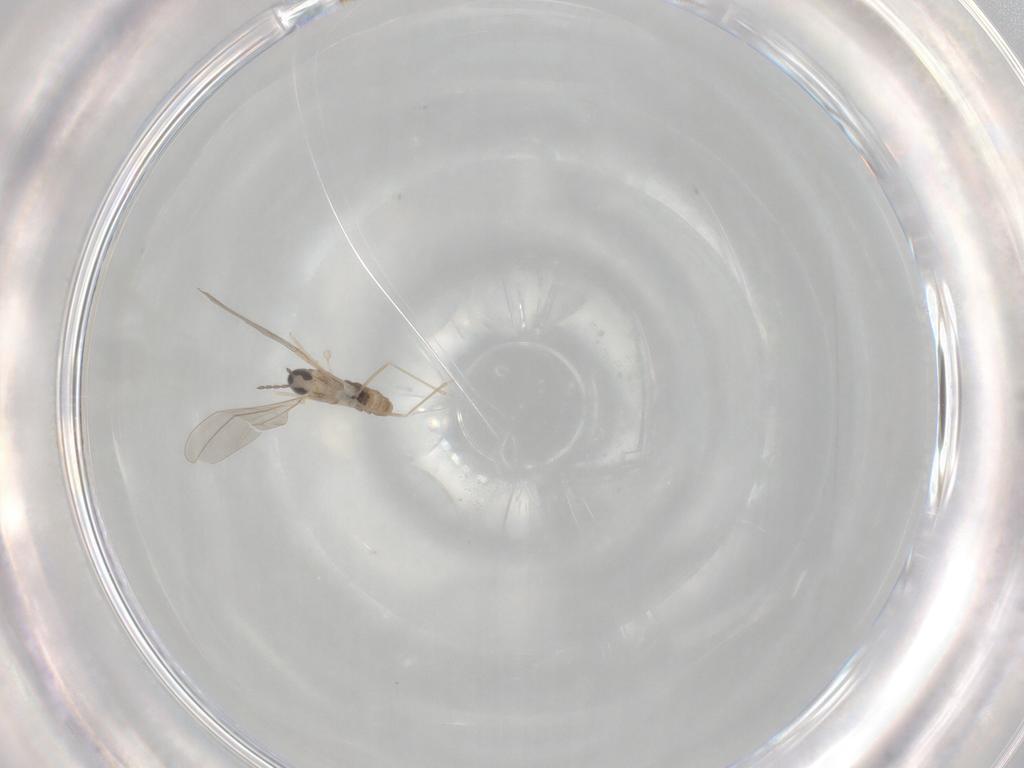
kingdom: Animalia
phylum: Arthropoda
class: Insecta
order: Diptera
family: Cecidomyiidae
